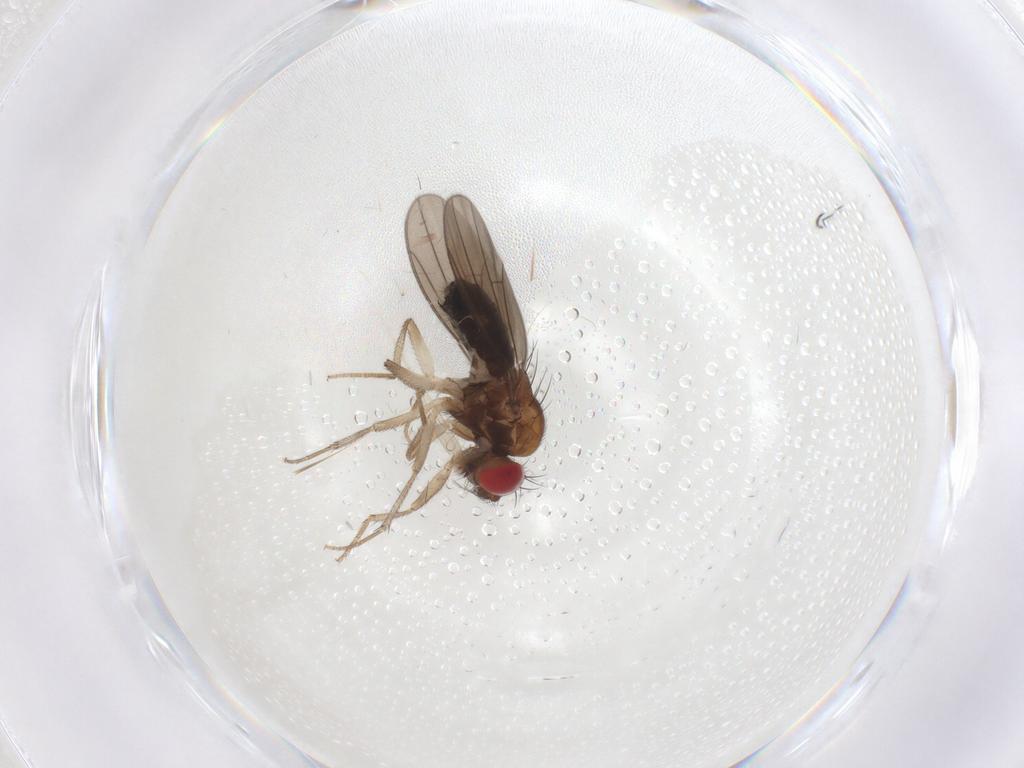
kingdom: Animalia
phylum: Arthropoda
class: Insecta
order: Diptera
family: Drosophilidae
